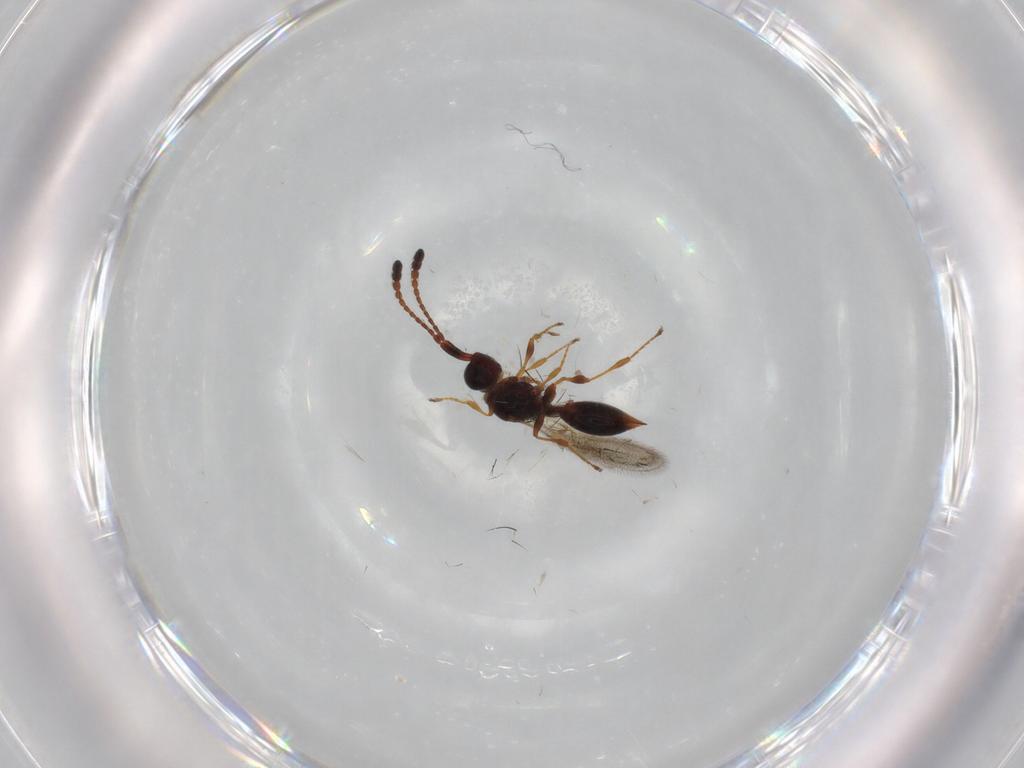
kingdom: Animalia
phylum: Arthropoda
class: Insecta
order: Hymenoptera
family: Diapriidae
